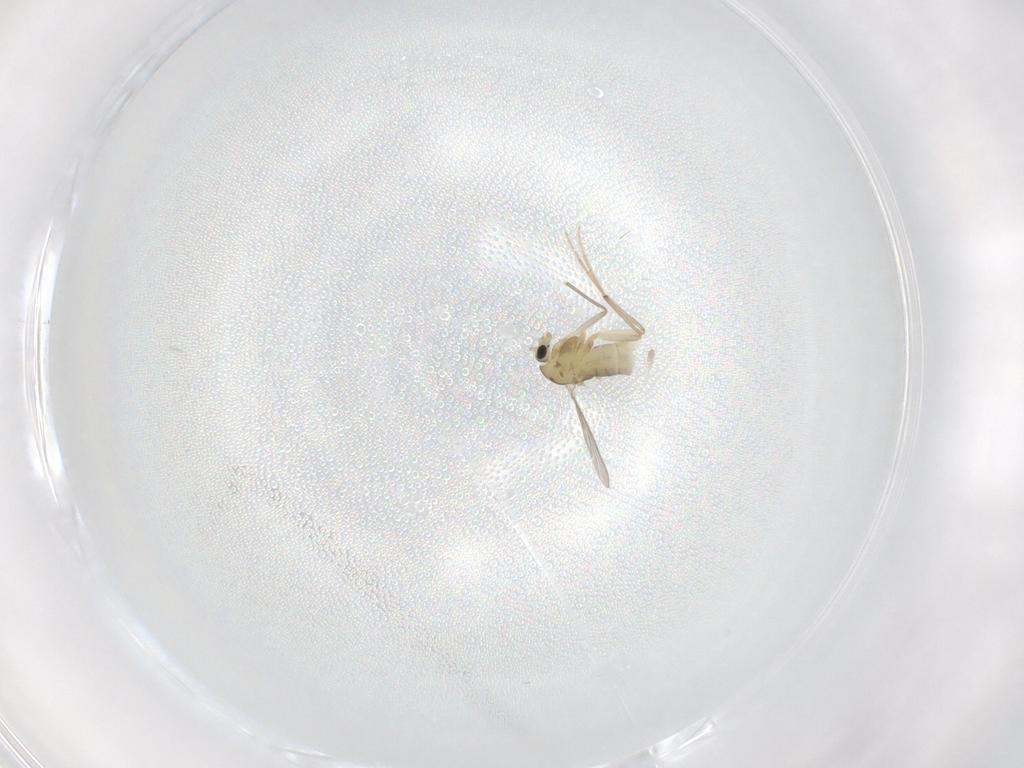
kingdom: Animalia
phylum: Arthropoda
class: Insecta
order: Diptera
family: Chironomidae
